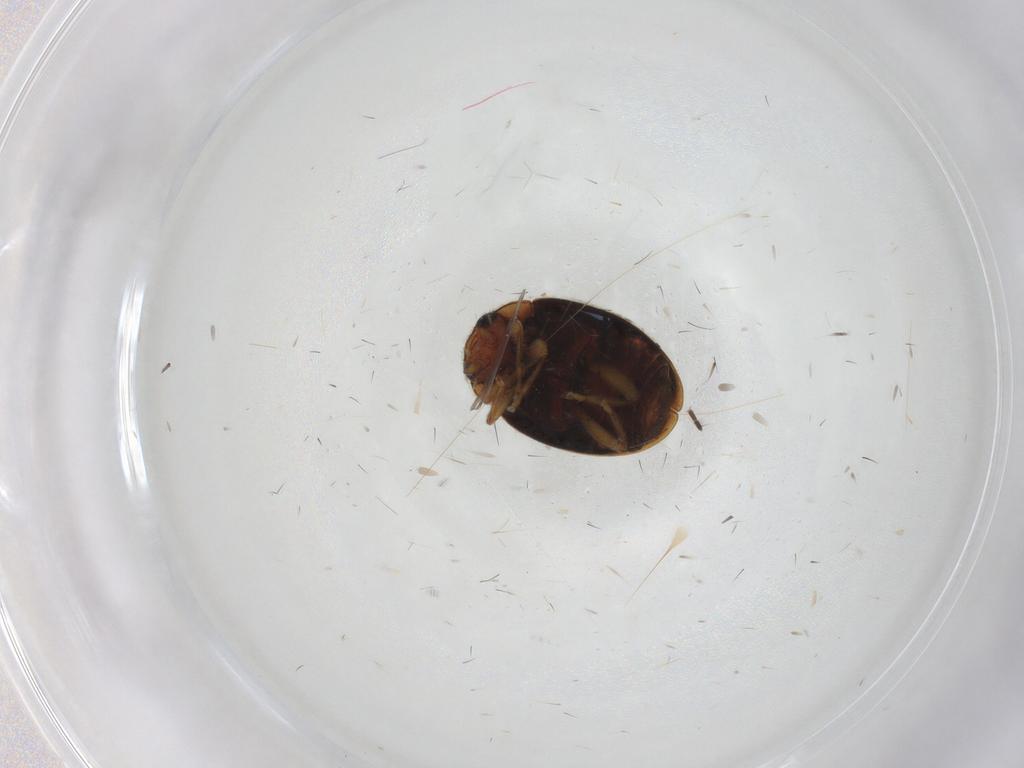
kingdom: Animalia
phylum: Arthropoda
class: Insecta
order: Coleoptera
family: Coccinellidae
